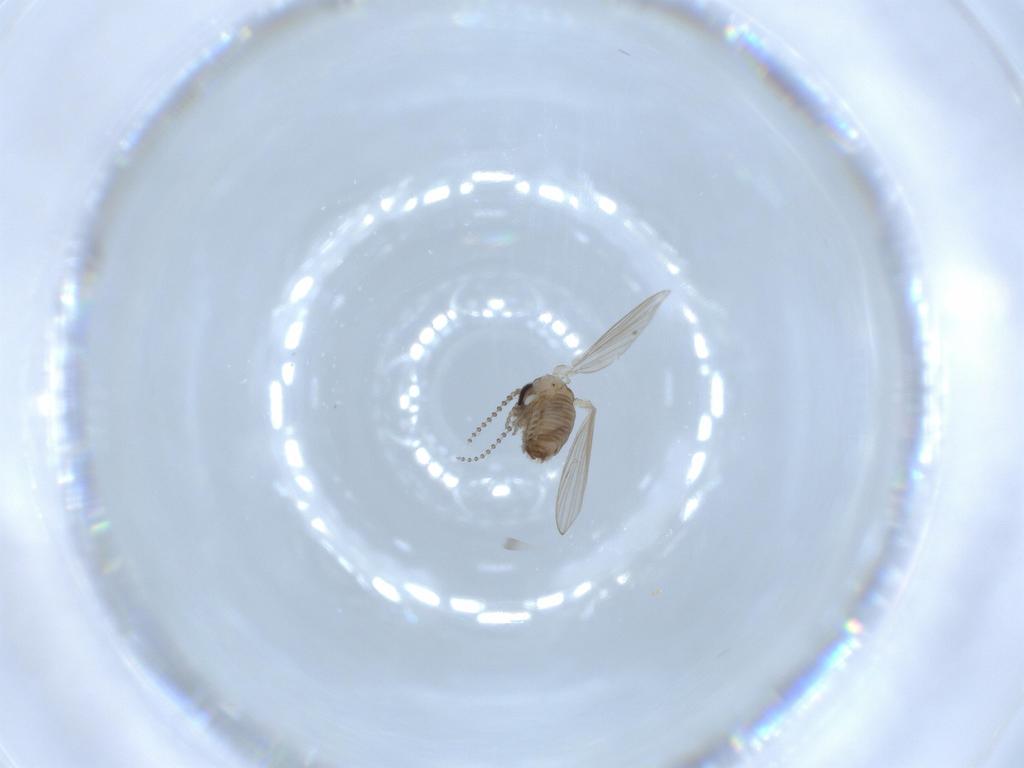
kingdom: Animalia
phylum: Arthropoda
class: Insecta
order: Diptera
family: Psychodidae
